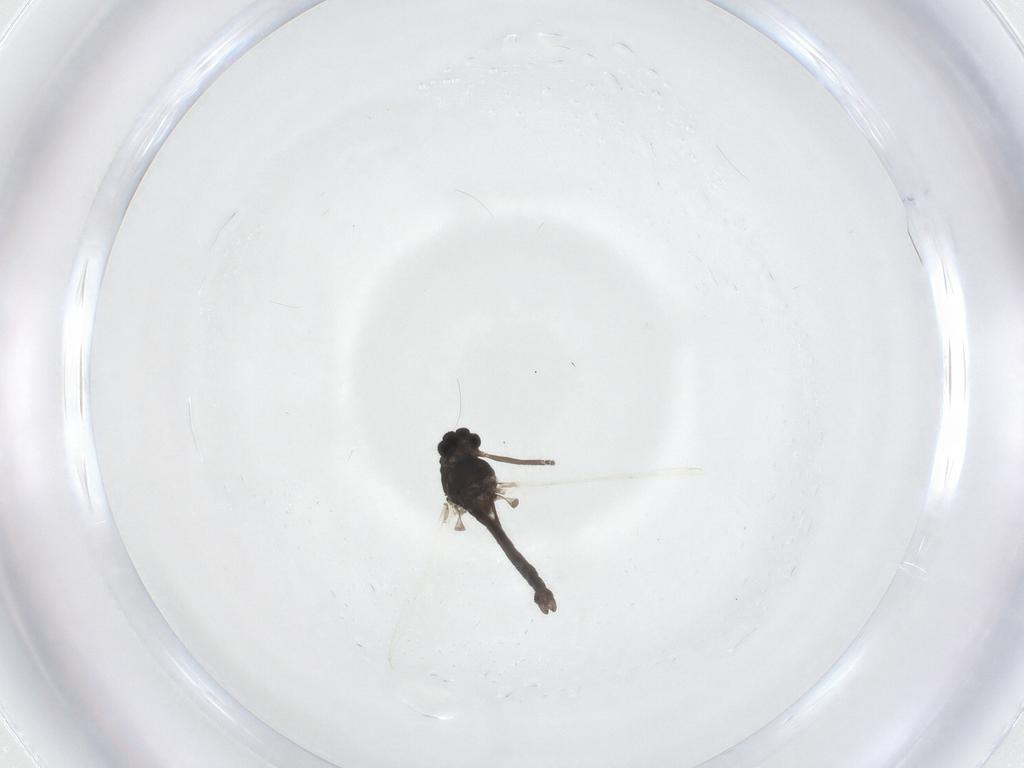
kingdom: Animalia
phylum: Arthropoda
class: Insecta
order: Diptera
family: Chironomidae
